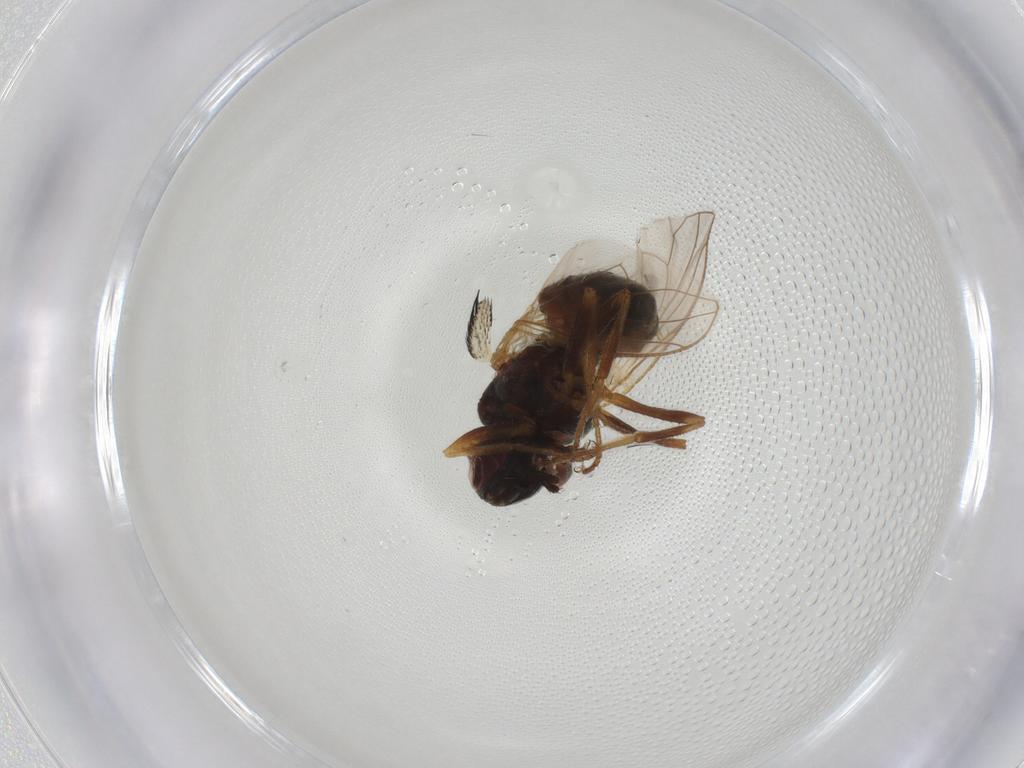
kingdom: Animalia
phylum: Arthropoda
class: Insecta
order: Diptera
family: Muscidae
